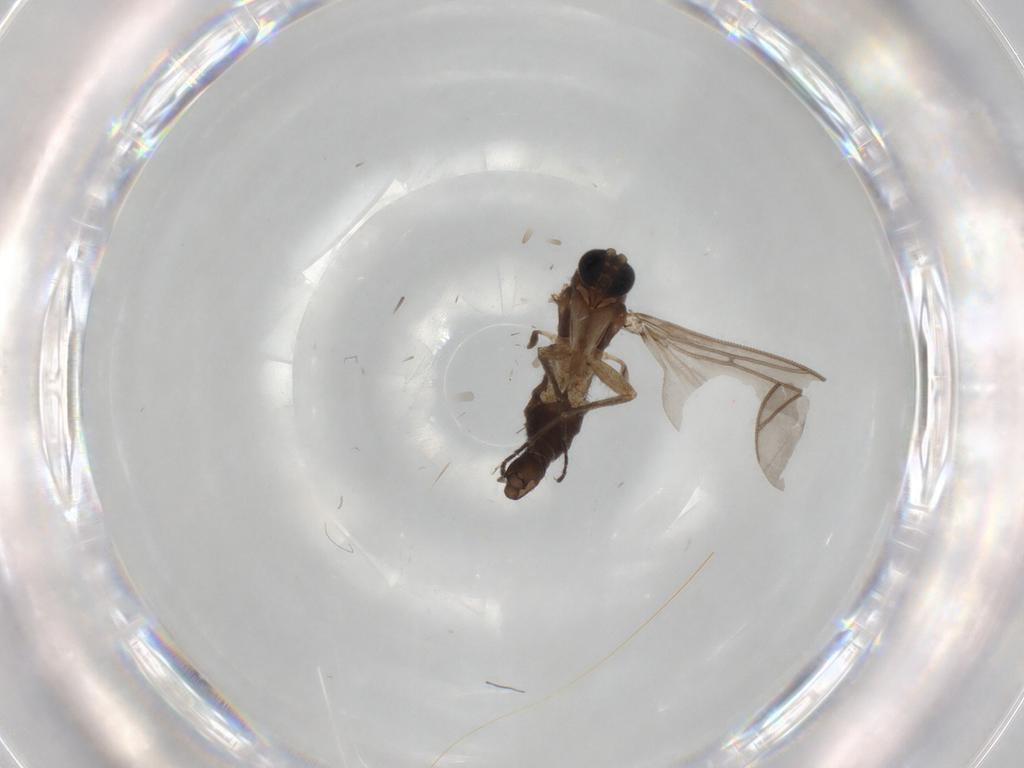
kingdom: Animalia
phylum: Arthropoda
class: Insecta
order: Diptera
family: Sciaridae
